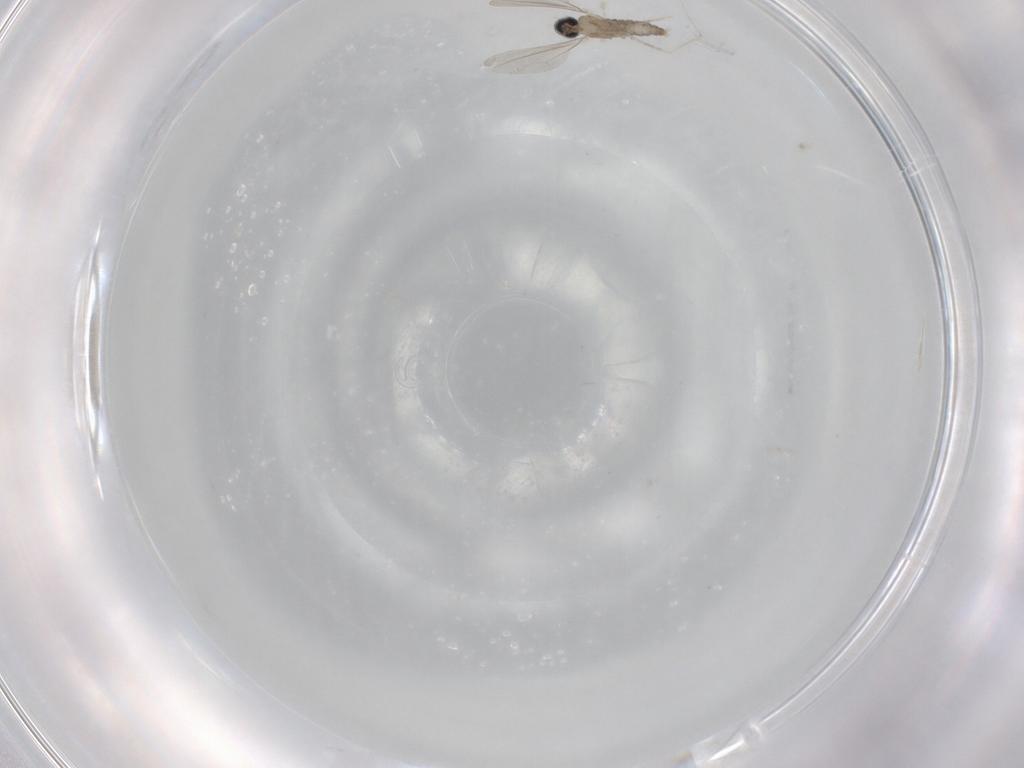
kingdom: Animalia
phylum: Arthropoda
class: Insecta
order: Diptera
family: Cecidomyiidae
